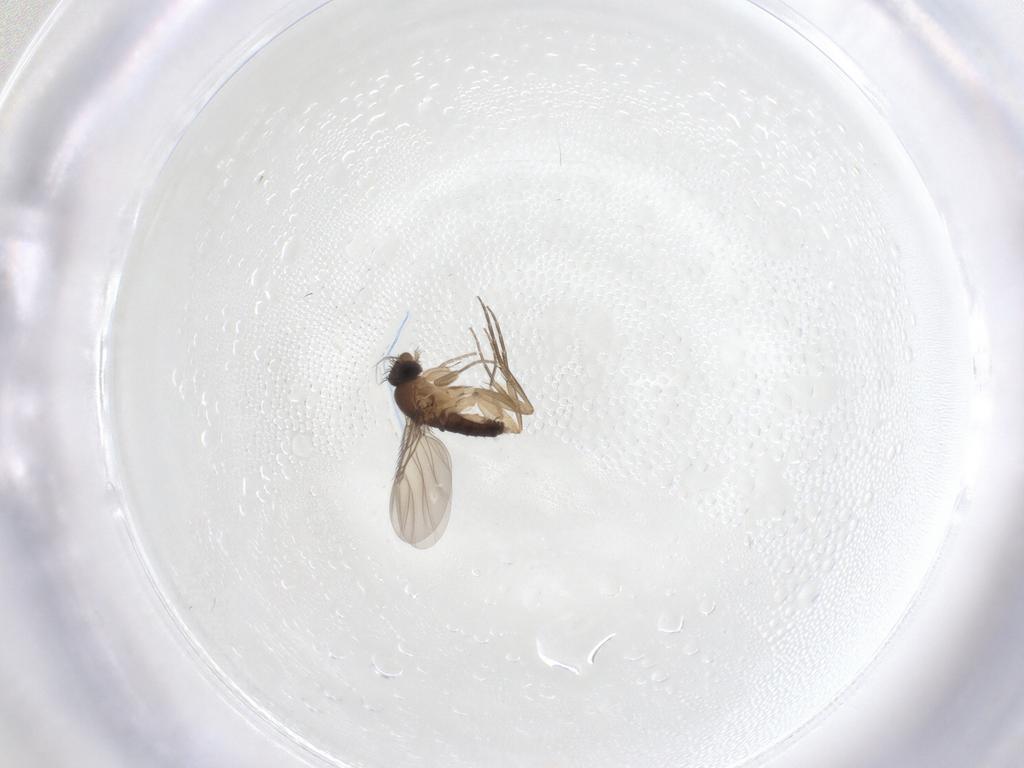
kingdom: Animalia
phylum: Arthropoda
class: Insecta
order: Diptera
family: Phoridae
